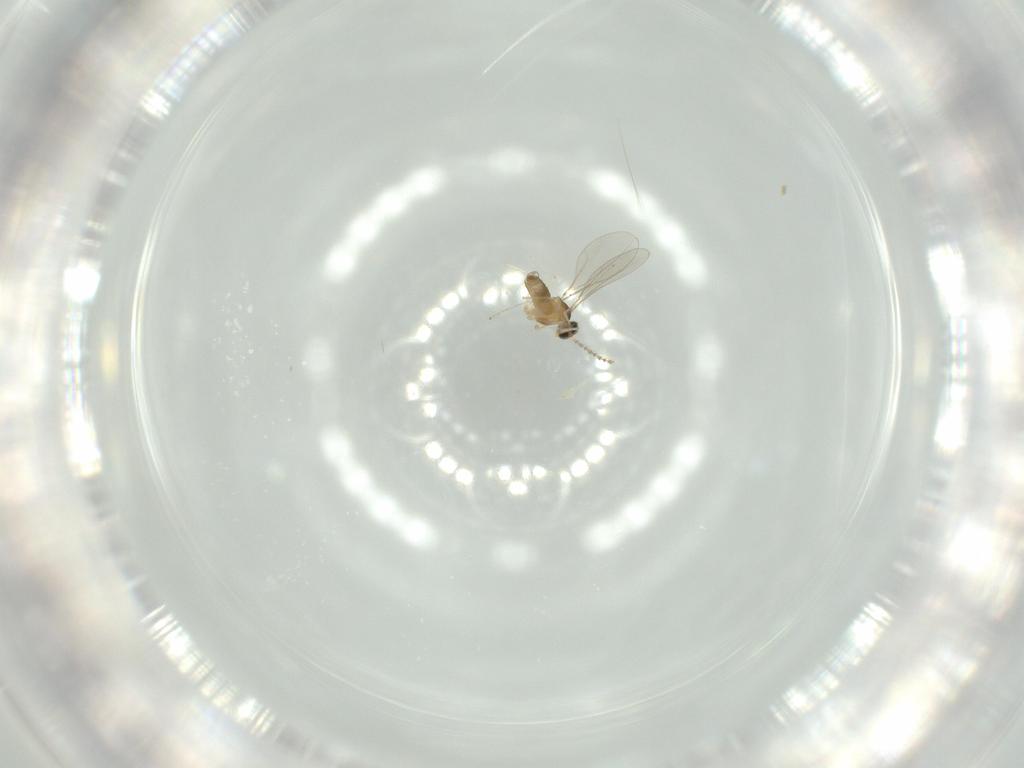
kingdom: Animalia
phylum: Arthropoda
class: Insecta
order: Diptera
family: Cecidomyiidae
